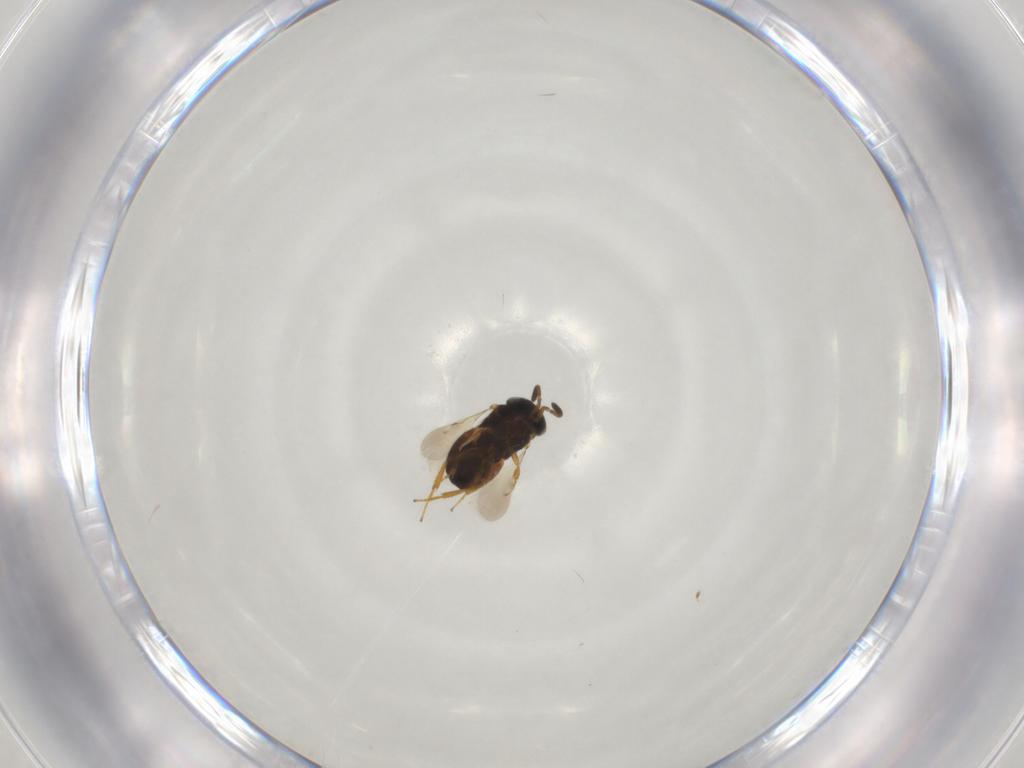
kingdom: Animalia
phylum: Arthropoda
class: Insecta
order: Hymenoptera
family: Scelionidae
